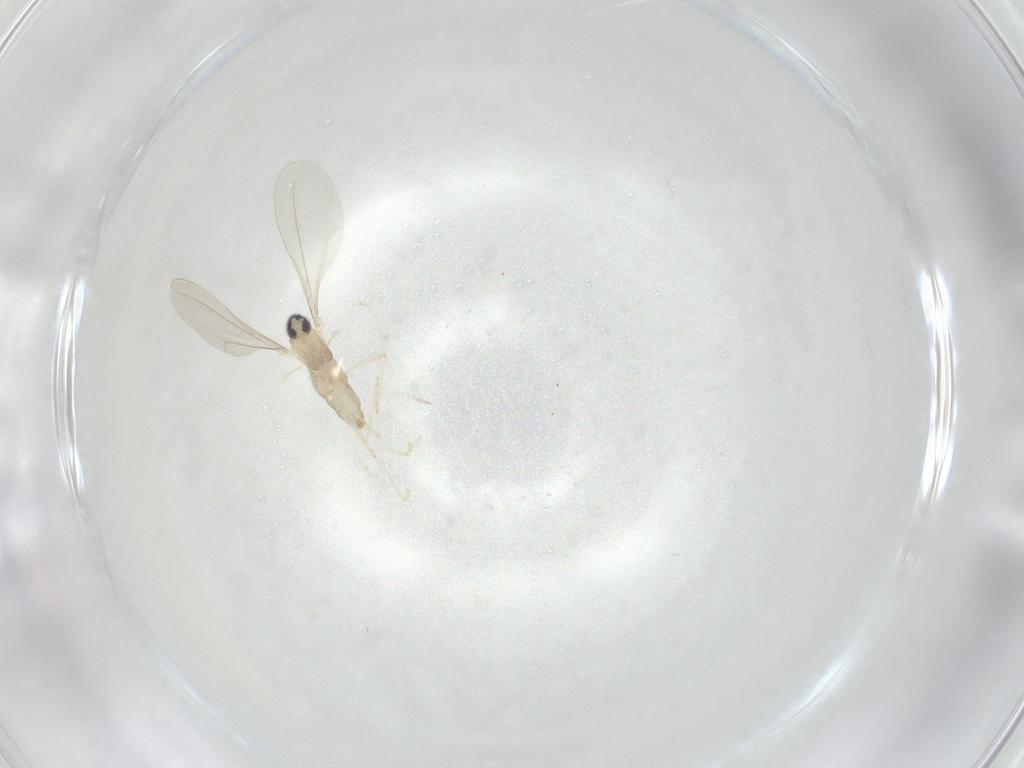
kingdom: Animalia
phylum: Arthropoda
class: Insecta
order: Diptera
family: Cecidomyiidae
